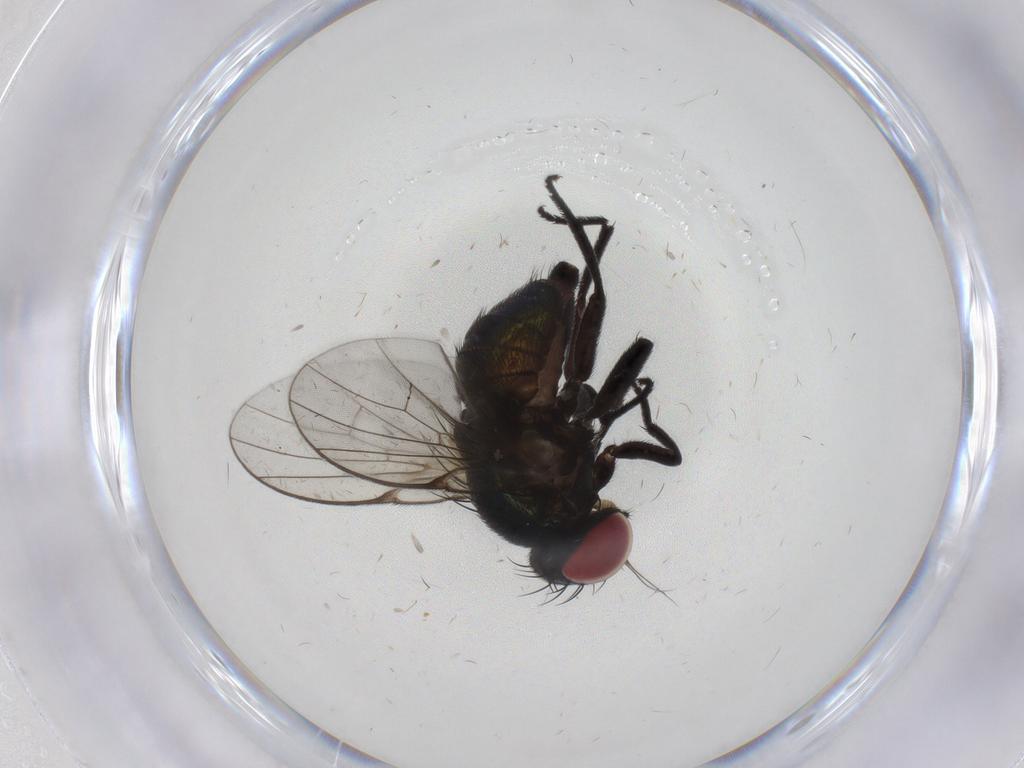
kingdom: Animalia
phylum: Arthropoda
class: Insecta
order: Diptera
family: Agromyzidae
